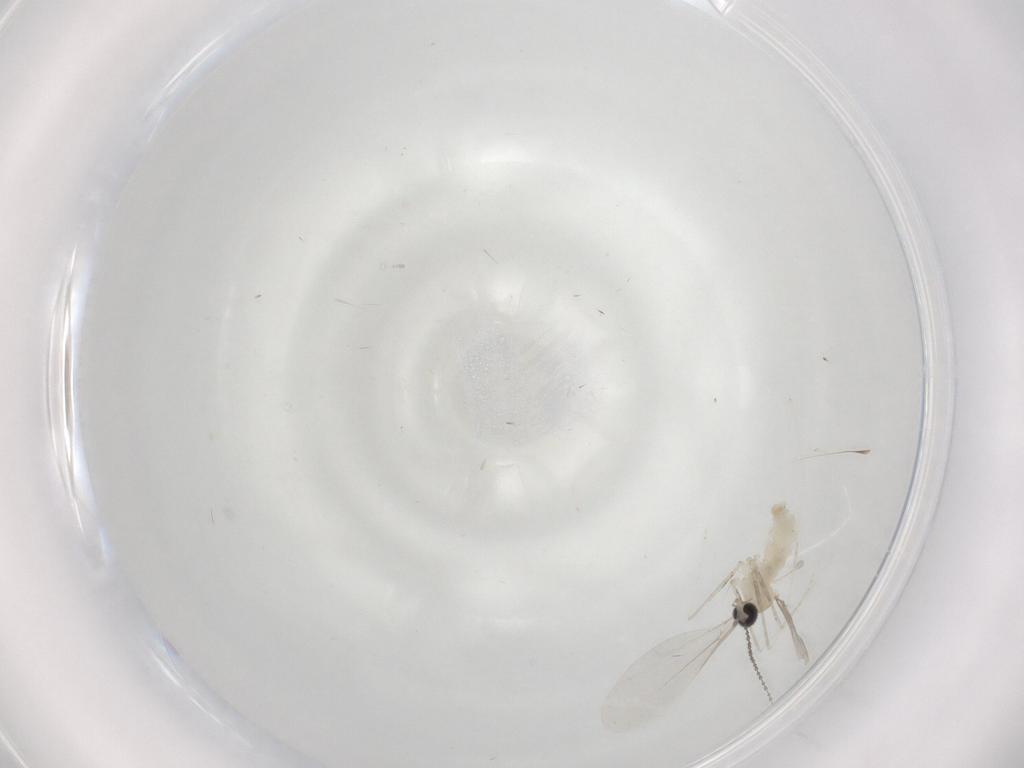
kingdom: Animalia
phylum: Arthropoda
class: Insecta
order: Diptera
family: Cecidomyiidae
